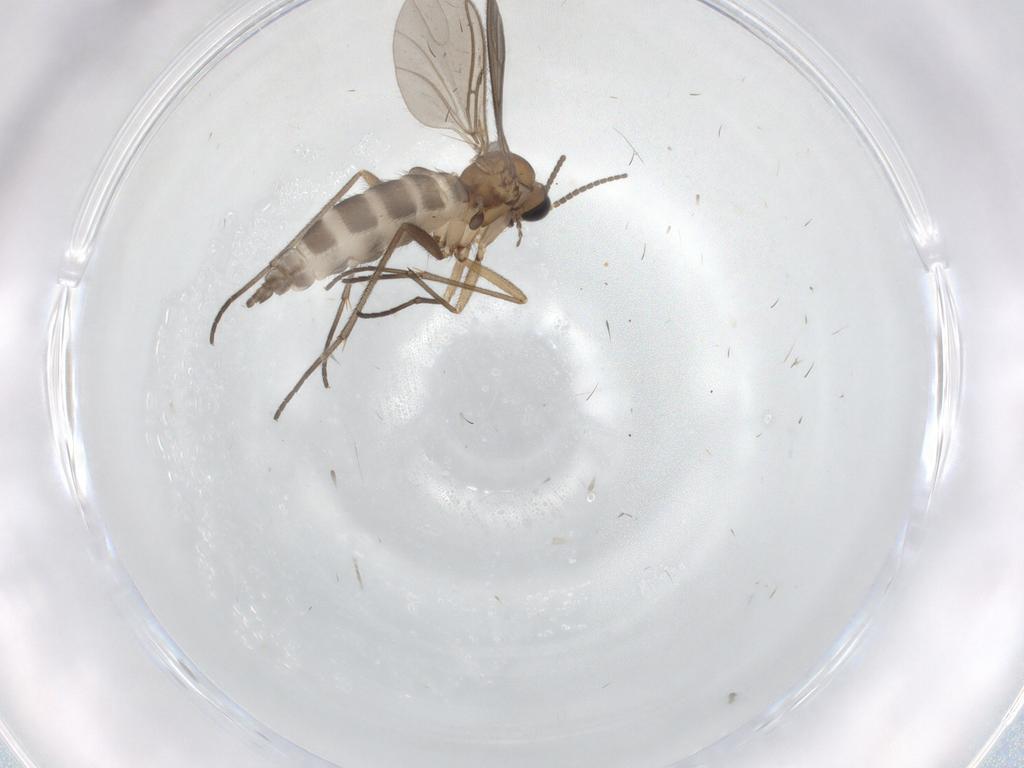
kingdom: Animalia
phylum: Arthropoda
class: Insecta
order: Diptera
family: Sciaridae
